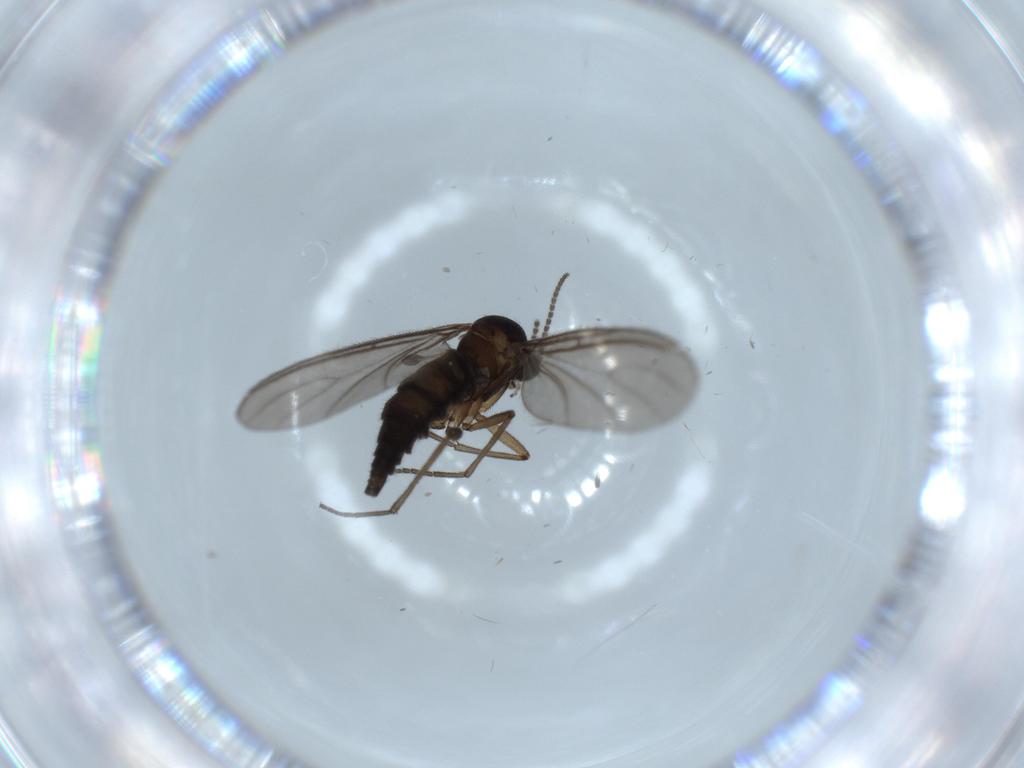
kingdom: Animalia
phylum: Arthropoda
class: Insecta
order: Diptera
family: Sciaridae
